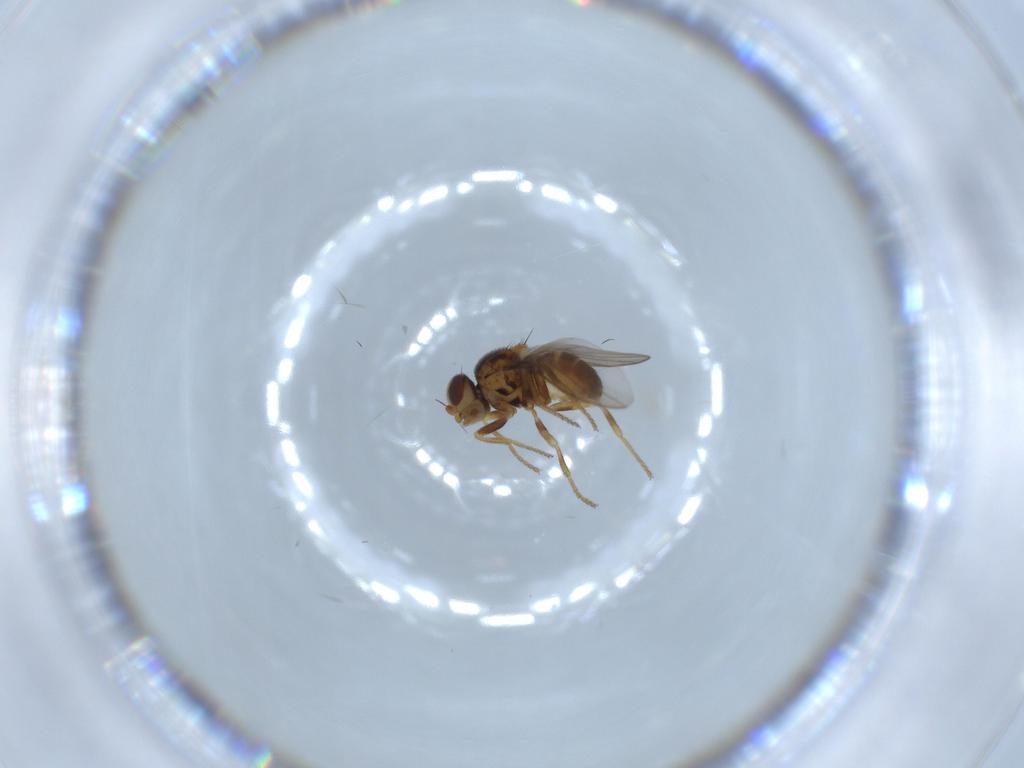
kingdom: Animalia
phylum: Arthropoda
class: Insecta
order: Diptera
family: Chloropidae
